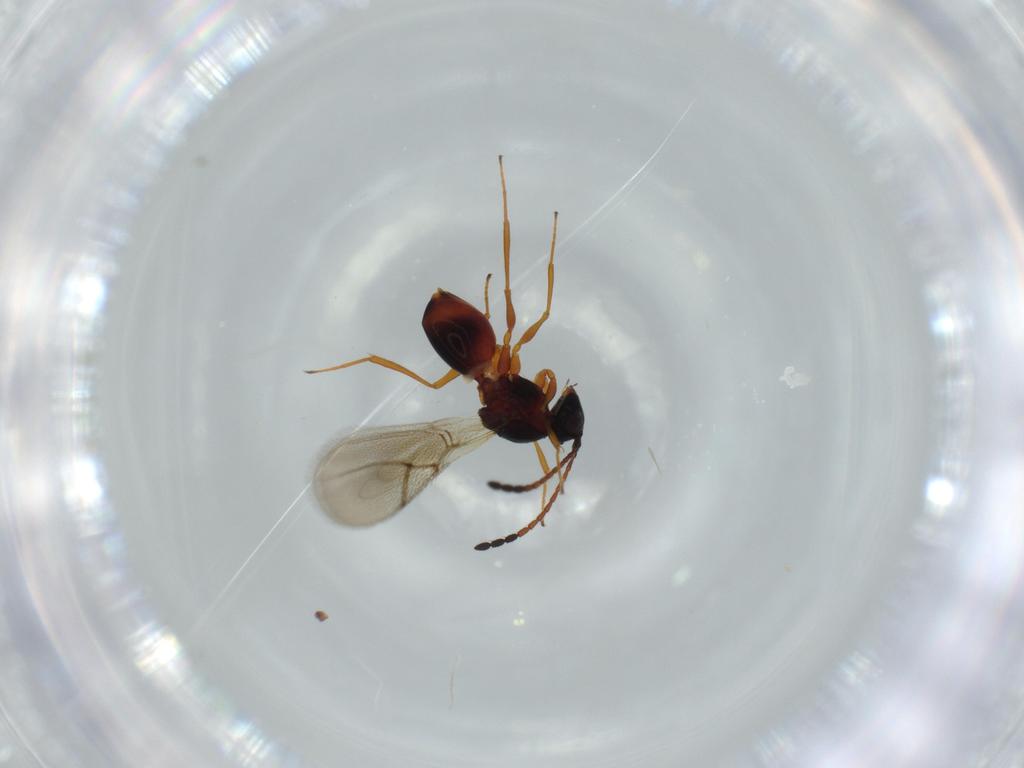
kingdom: Animalia
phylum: Arthropoda
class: Insecta
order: Hymenoptera
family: Figitidae
